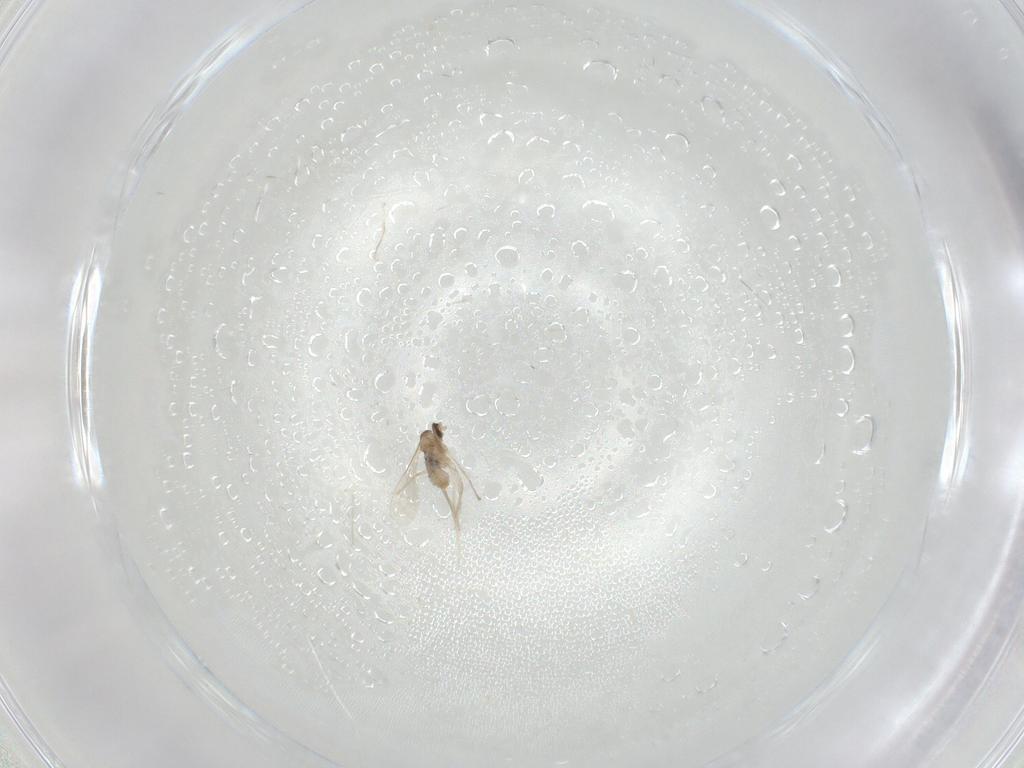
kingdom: Animalia
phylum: Arthropoda
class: Insecta
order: Diptera
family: Cecidomyiidae
